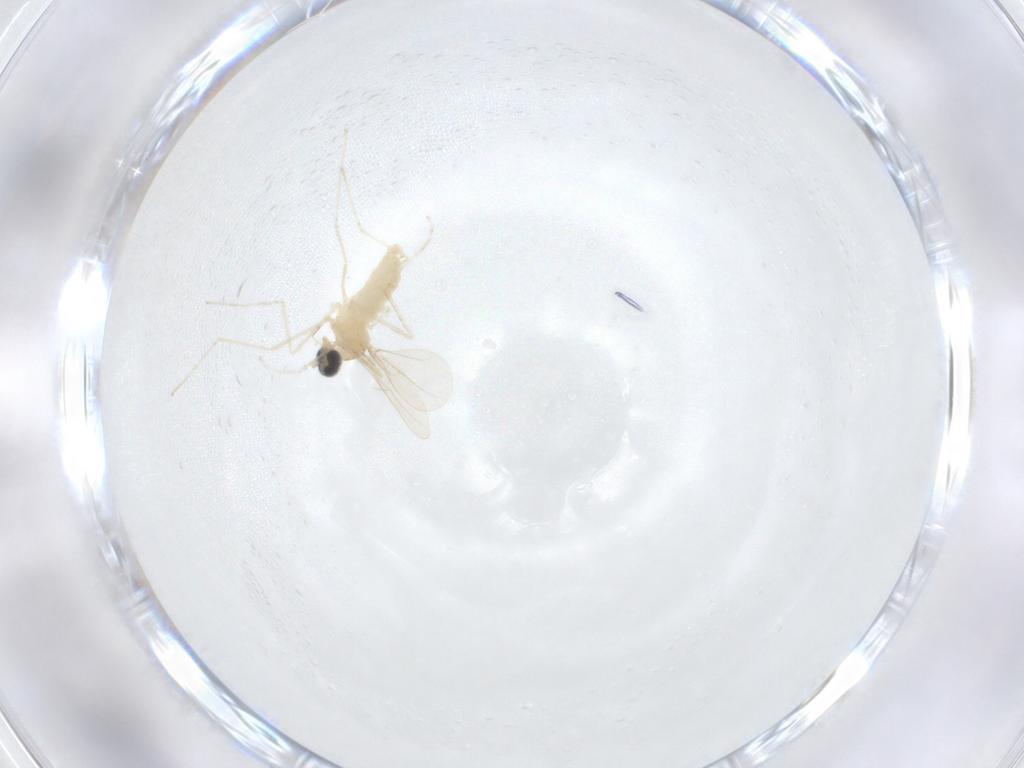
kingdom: Animalia
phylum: Arthropoda
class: Insecta
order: Diptera
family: Cecidomyiidae
